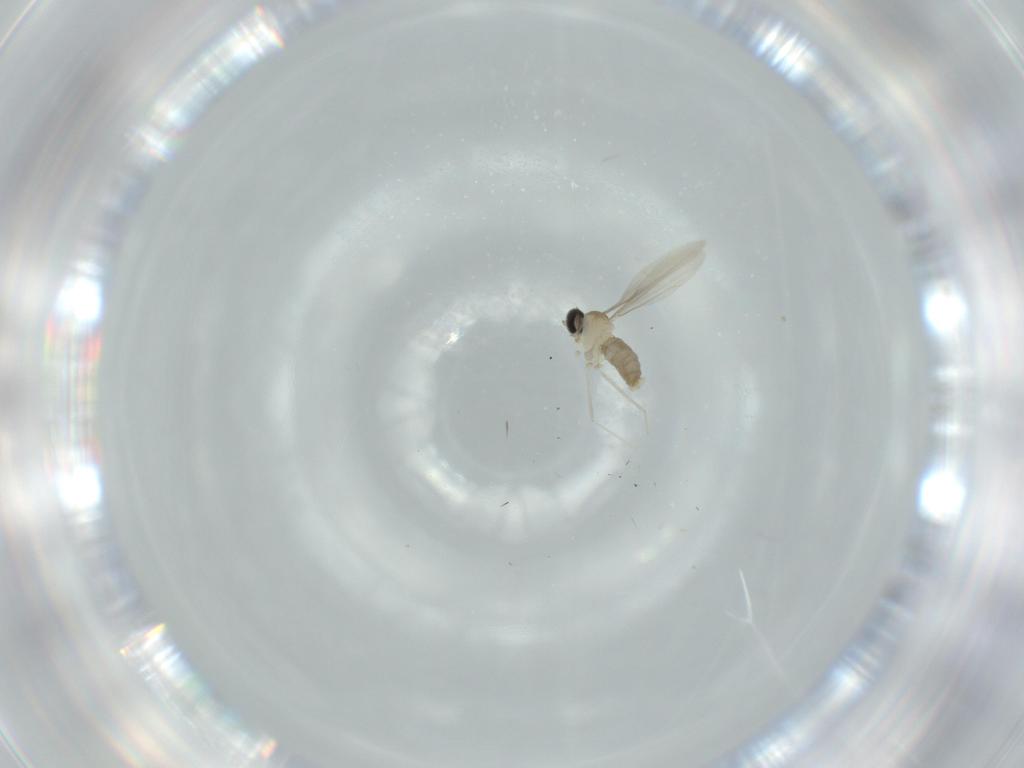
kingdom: Animalia
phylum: Arthropoda
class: Insecta
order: Diptera
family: Cecidomyiidae
